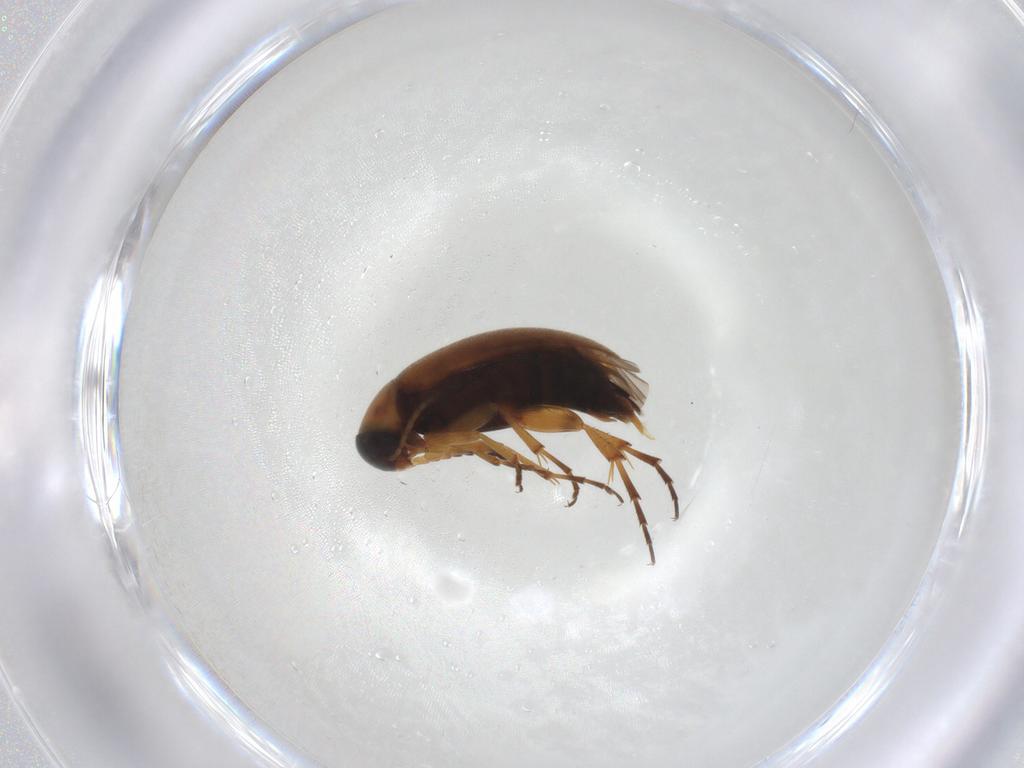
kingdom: Animalia
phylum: Arthropoda
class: Insecta
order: Coleoptera
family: Scraptiidae
